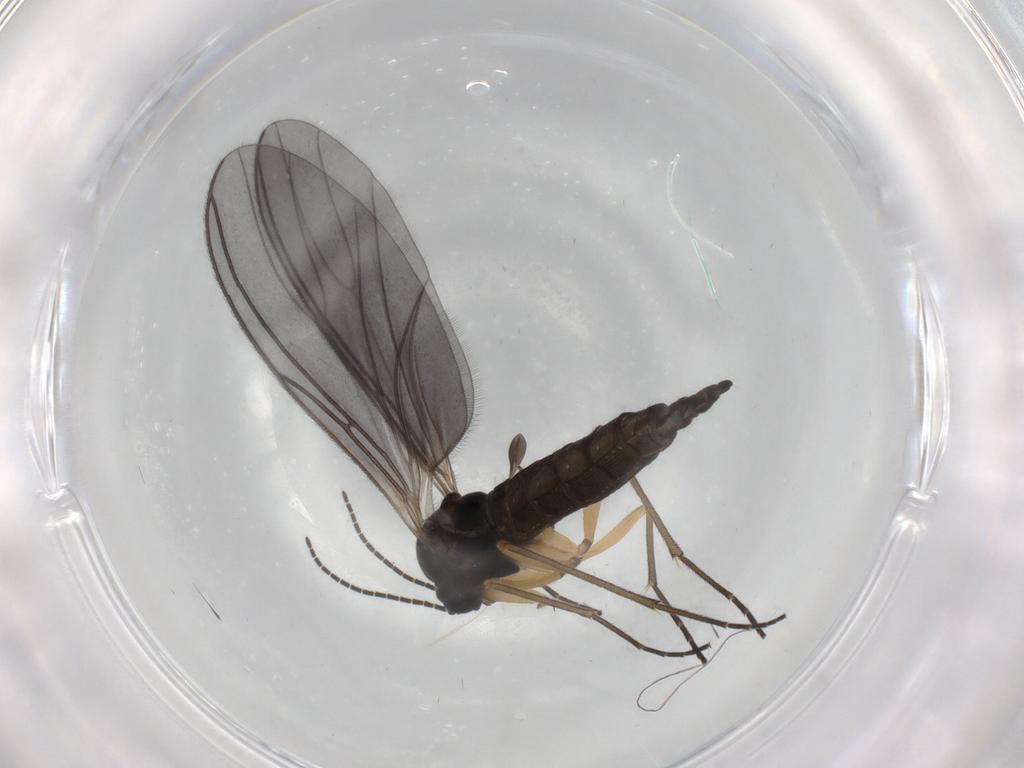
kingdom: Animalia
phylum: Arthropoda
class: Insecta
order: Diptera
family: Sciaridae
